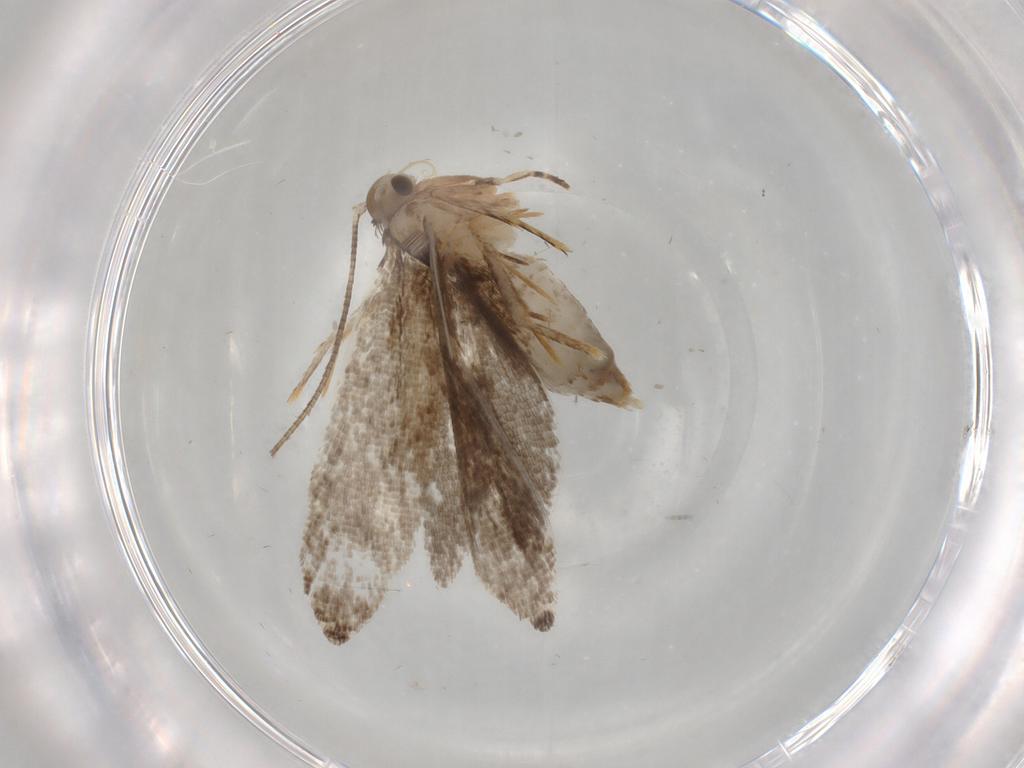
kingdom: Animalia
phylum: Arthropoda
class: Insecta
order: Lepidoptera
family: Tineidae
